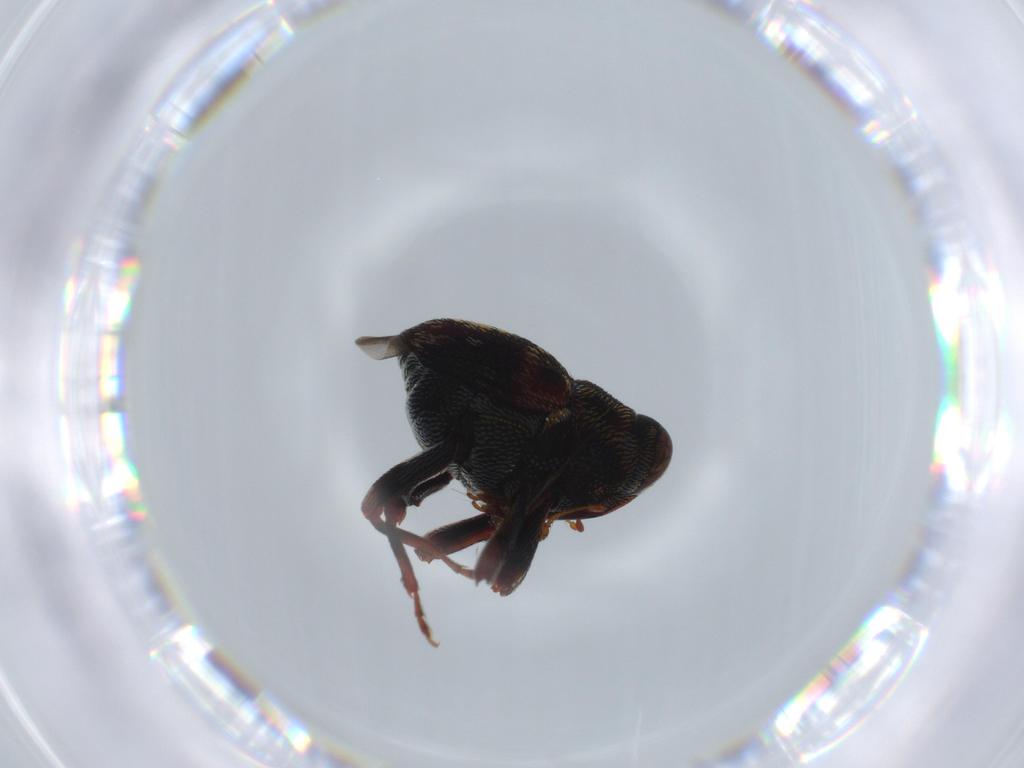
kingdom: Animalia
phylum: Arthropoda
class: Insecta
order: Coleoptera
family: Curculionidae
